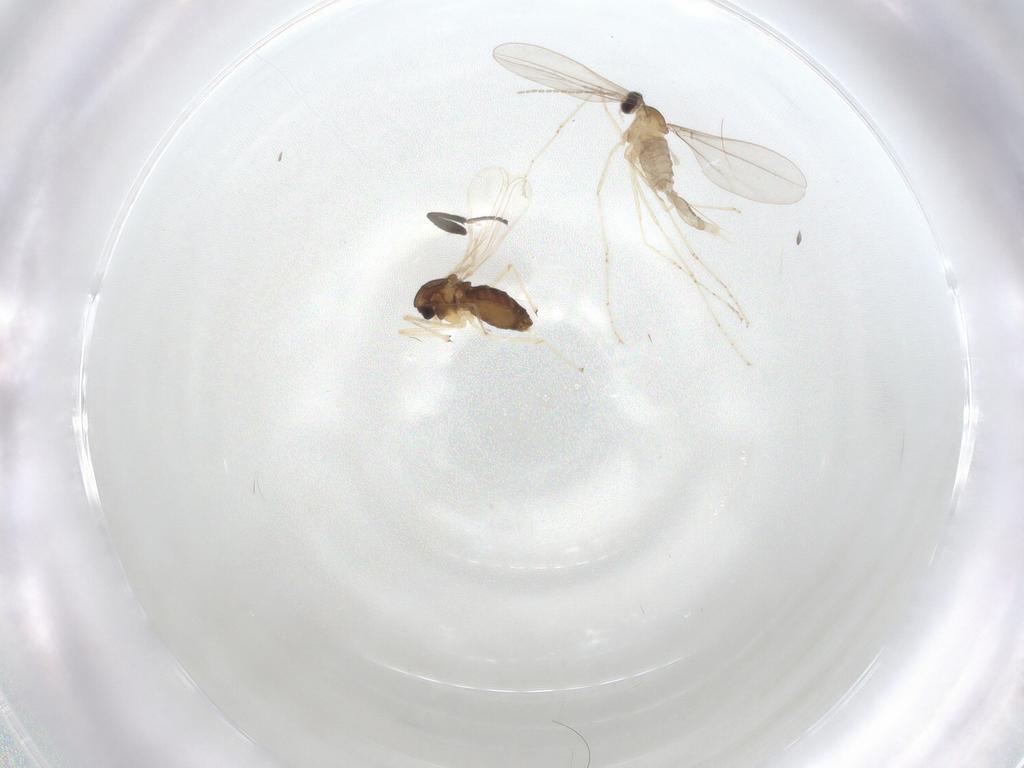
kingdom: Animalia
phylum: Arthropoda
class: Insecta
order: Diptera
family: Chironomidae
